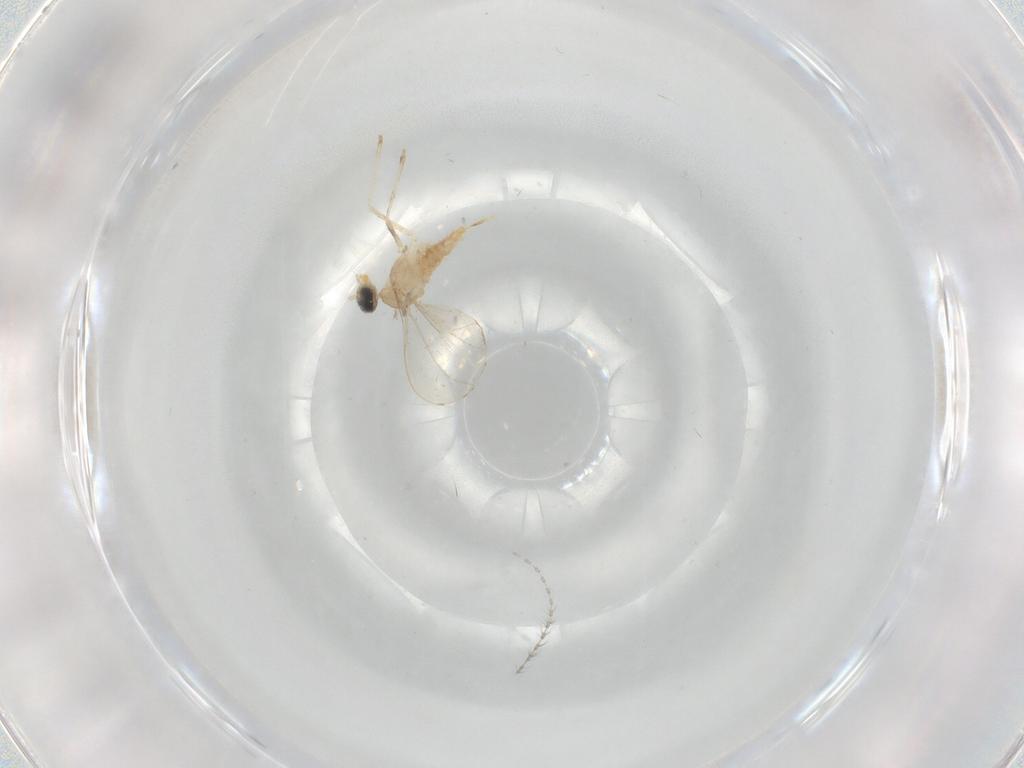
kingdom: Animalia
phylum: Arthropoda
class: Insecta
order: Diptera
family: Cecidomyiidae
